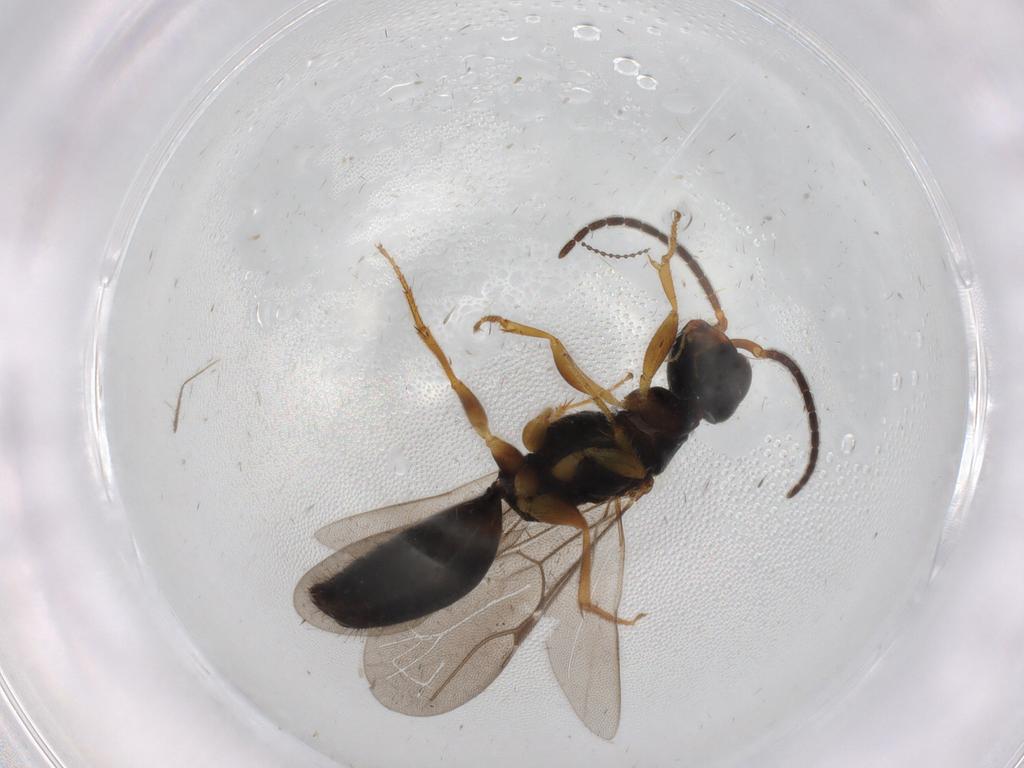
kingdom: Animalia
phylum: Arthropoda
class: Insecta
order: Hymenoptera
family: Bethylidae
